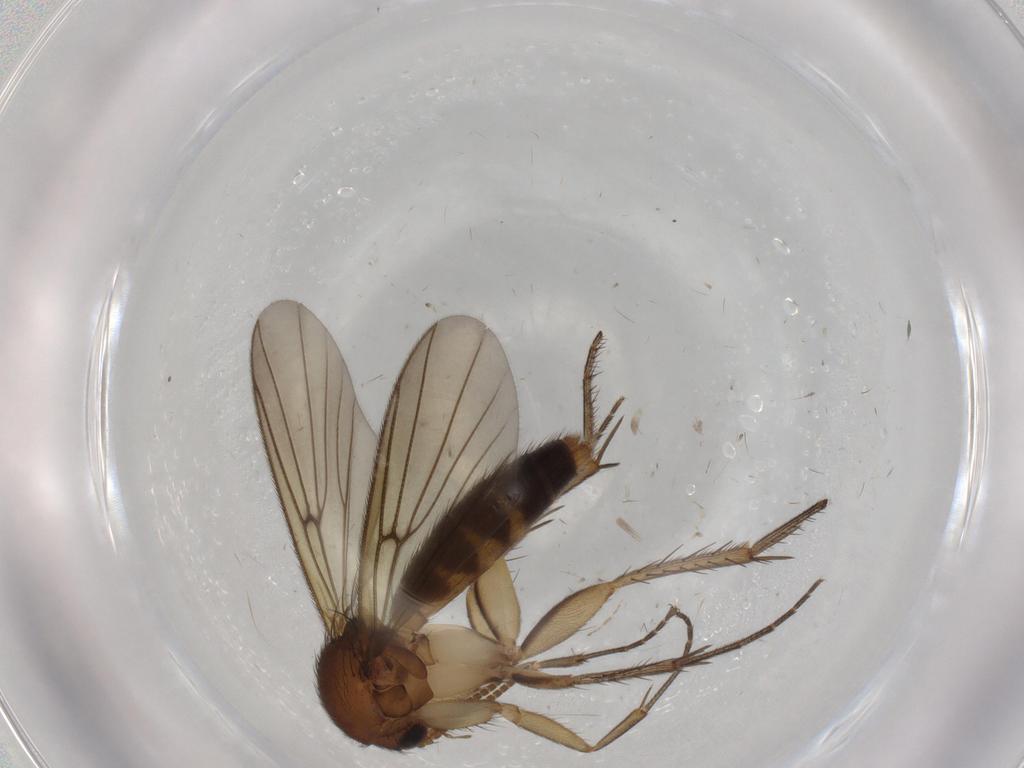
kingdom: Animalia
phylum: Arthropoda
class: Insecta
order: Diptera
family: Mycetophilidae
